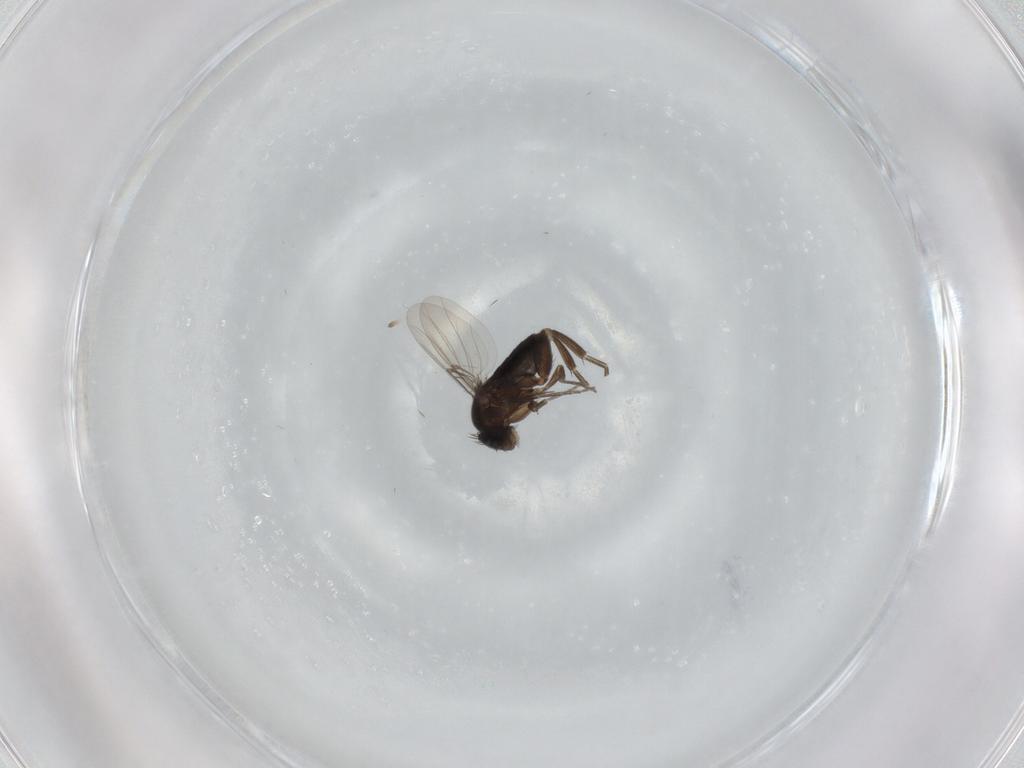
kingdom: Animalia
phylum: Arthropoda
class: Insecta
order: Diptera
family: Phoridae
